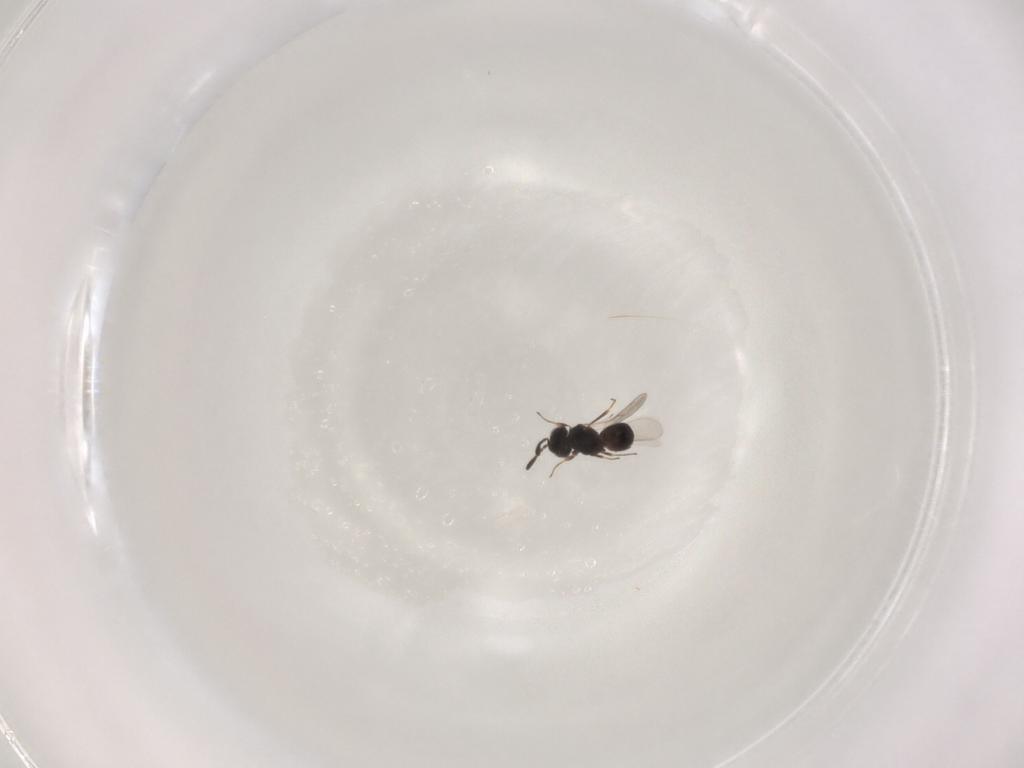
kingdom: Animalia
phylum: Arthropoda
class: Insecta
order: Hymenoptera
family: Scelionidae
